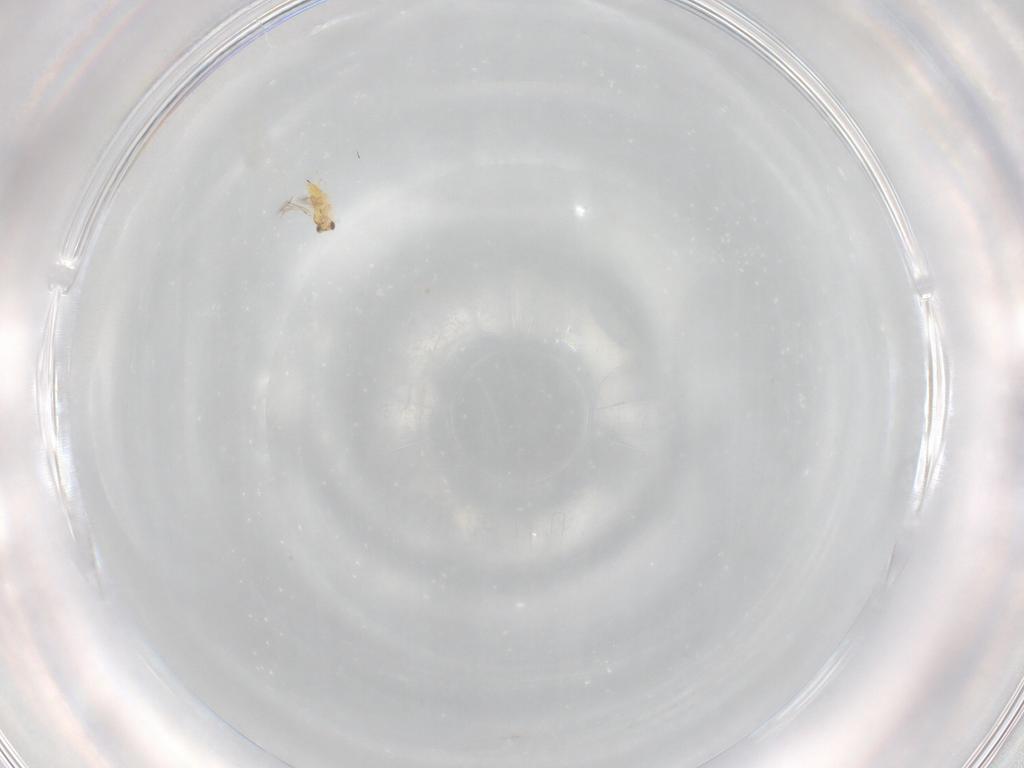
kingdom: Animalia
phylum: Arthropoda
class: Insecta
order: Hymenoptera
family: Mymaridae
